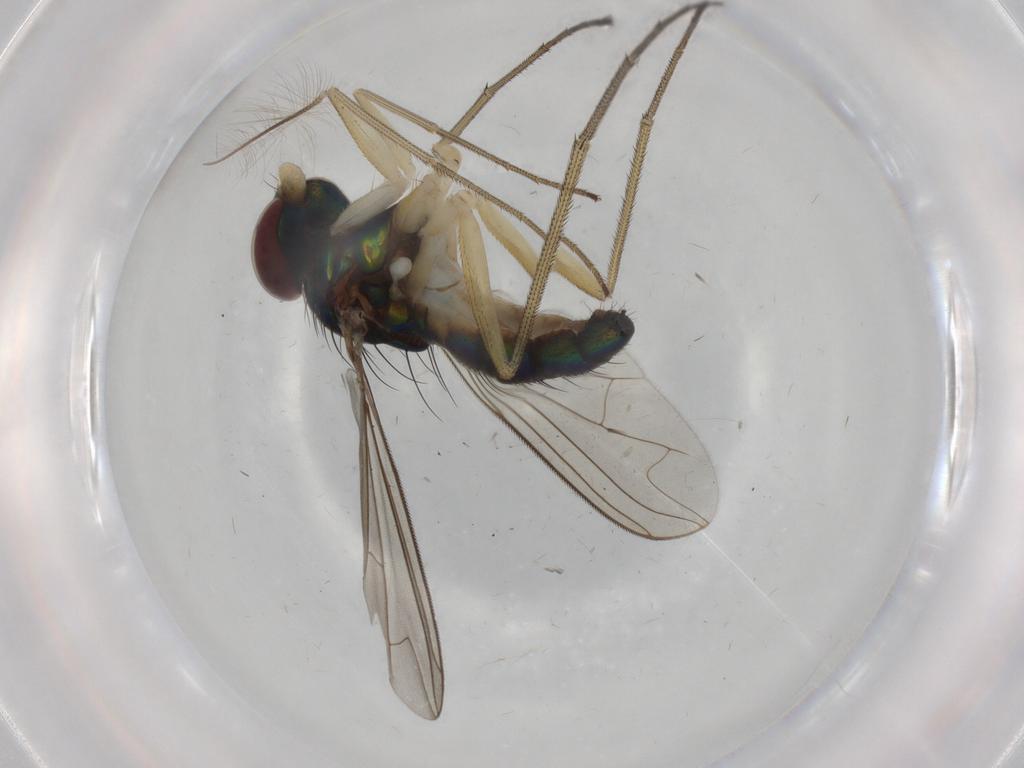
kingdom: Animalia
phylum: Arthropoda
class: Insecta
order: Diptera
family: Dolichopodidae
